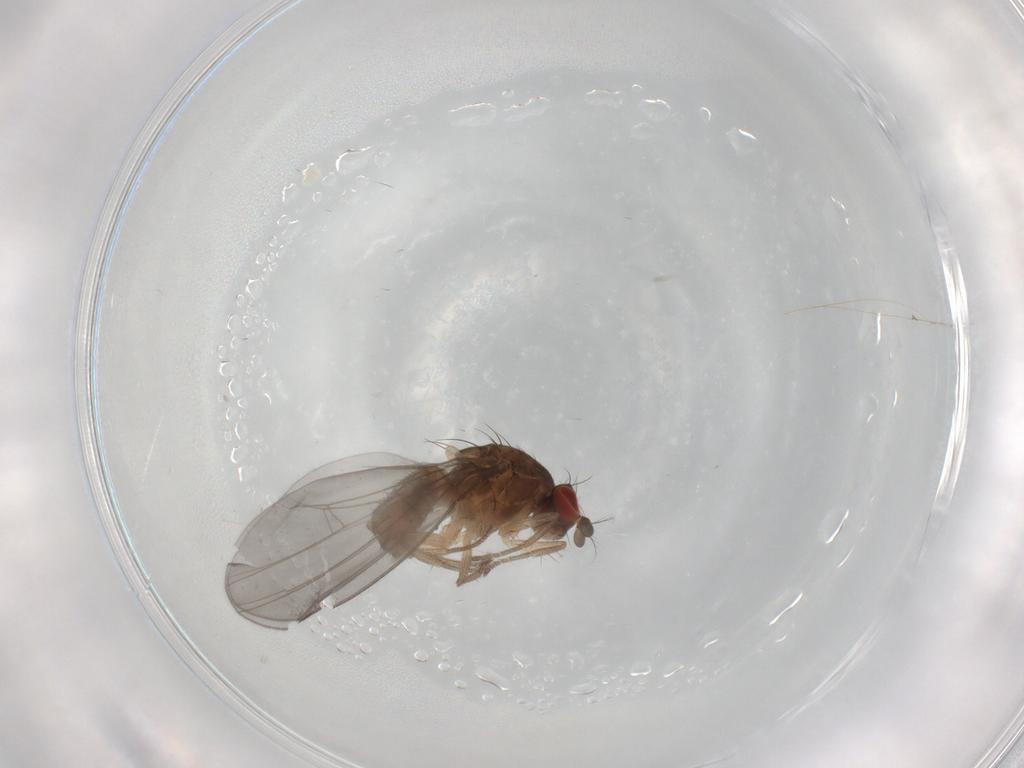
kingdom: Animalia
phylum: Arthropoda
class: Insecta
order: Diptera
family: Drosophilidae
